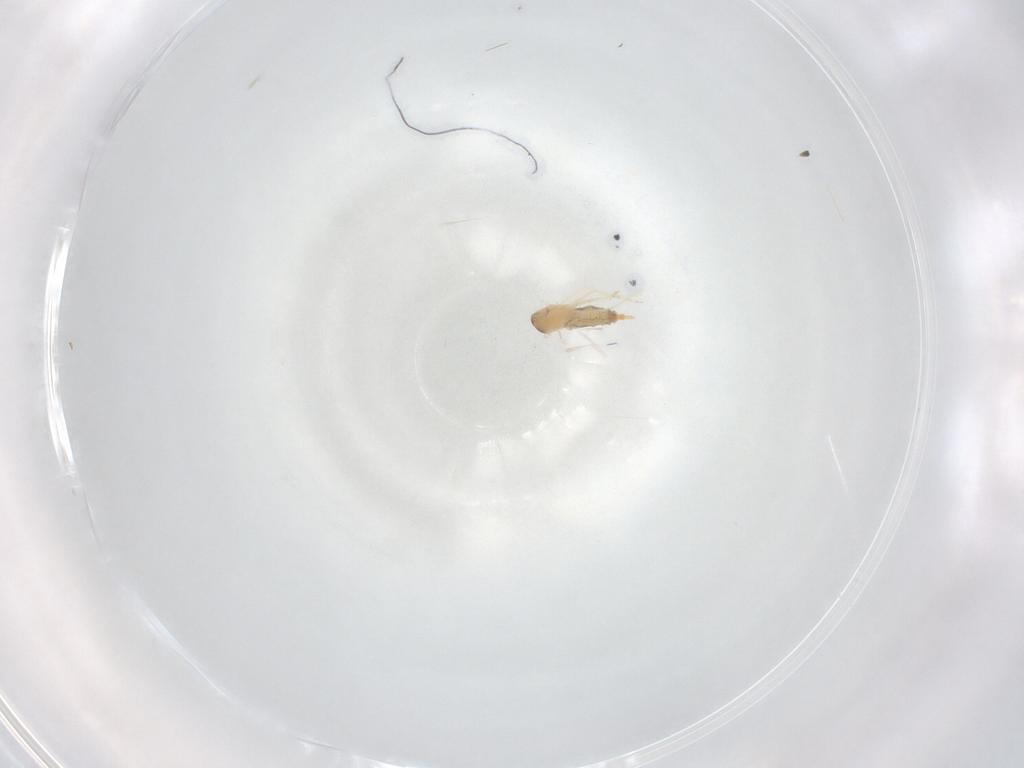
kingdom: Animalia
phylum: Arthropoda
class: Insecta
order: Diptera
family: Cecidomyiidae
